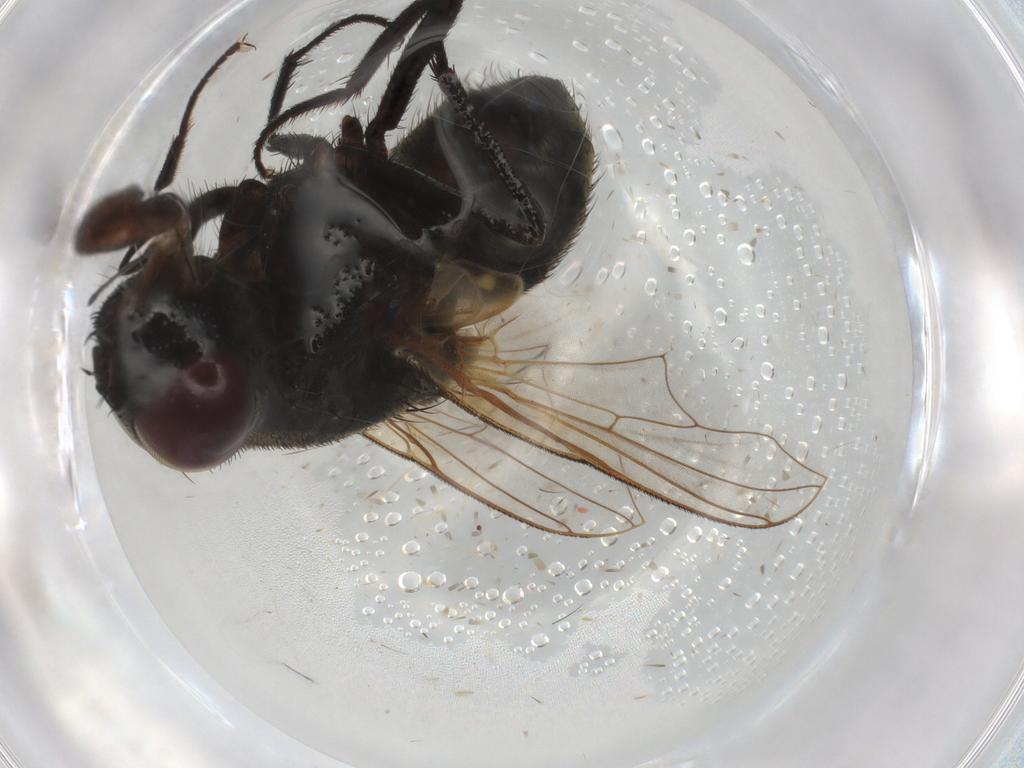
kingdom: Animalia
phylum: Arthropoda
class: Insecta
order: Diptera
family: Muscidae
